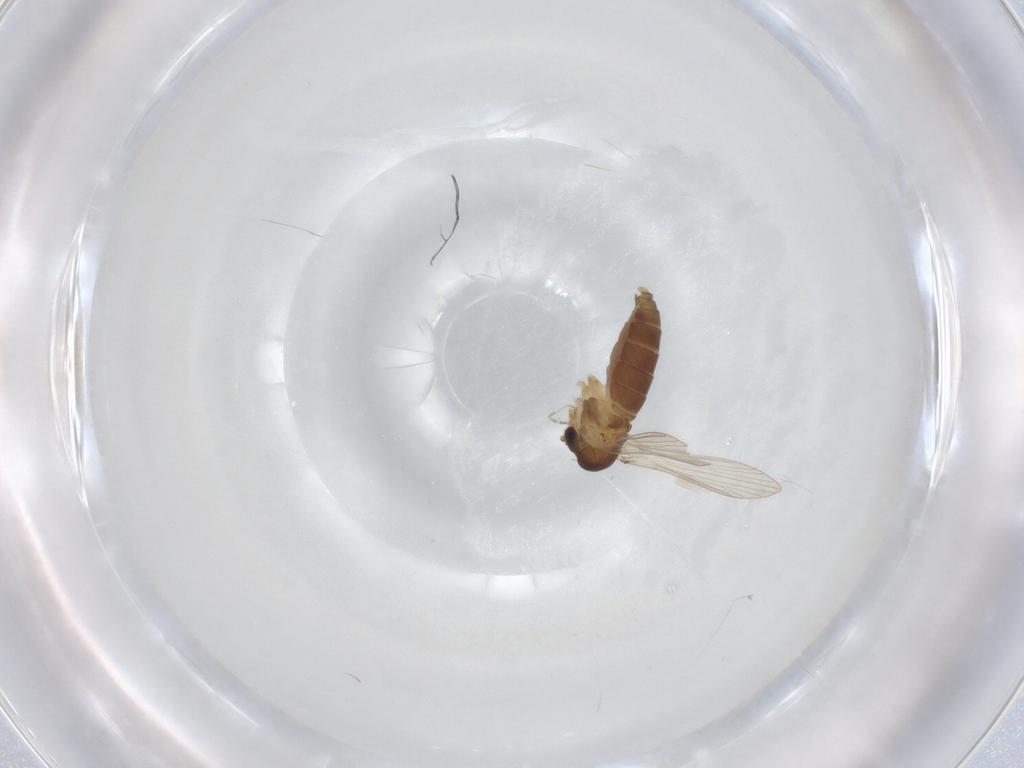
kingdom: Animalia
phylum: Arthropoda
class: Insecta
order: Diptera
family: Psychodidae
